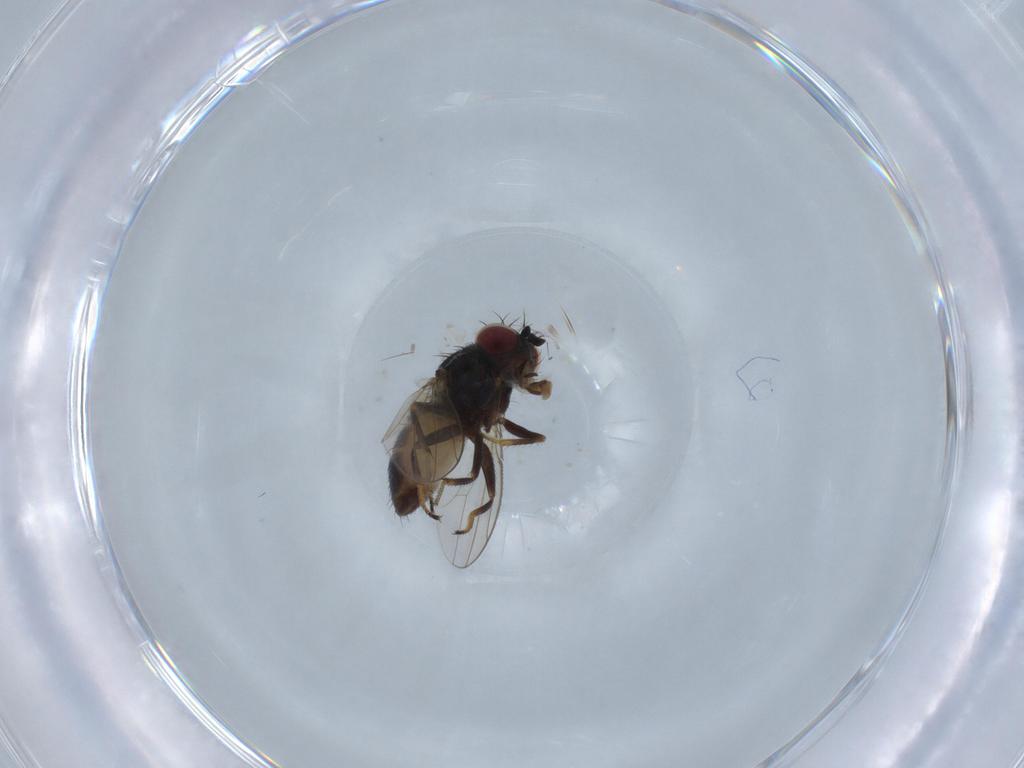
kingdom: Animalia
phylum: Arthropoda
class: Insecta
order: Diptera
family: Ephydridae
